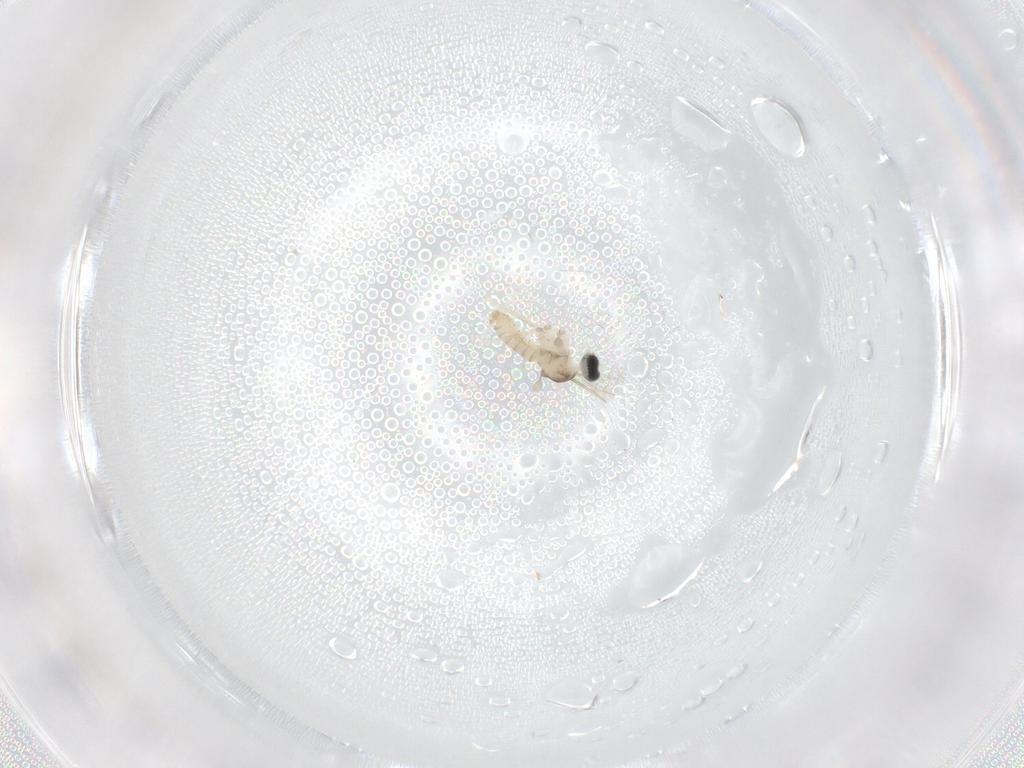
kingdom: Animalia
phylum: Arthropoda
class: Insecta
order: Diptera
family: Cecidomyiidae
